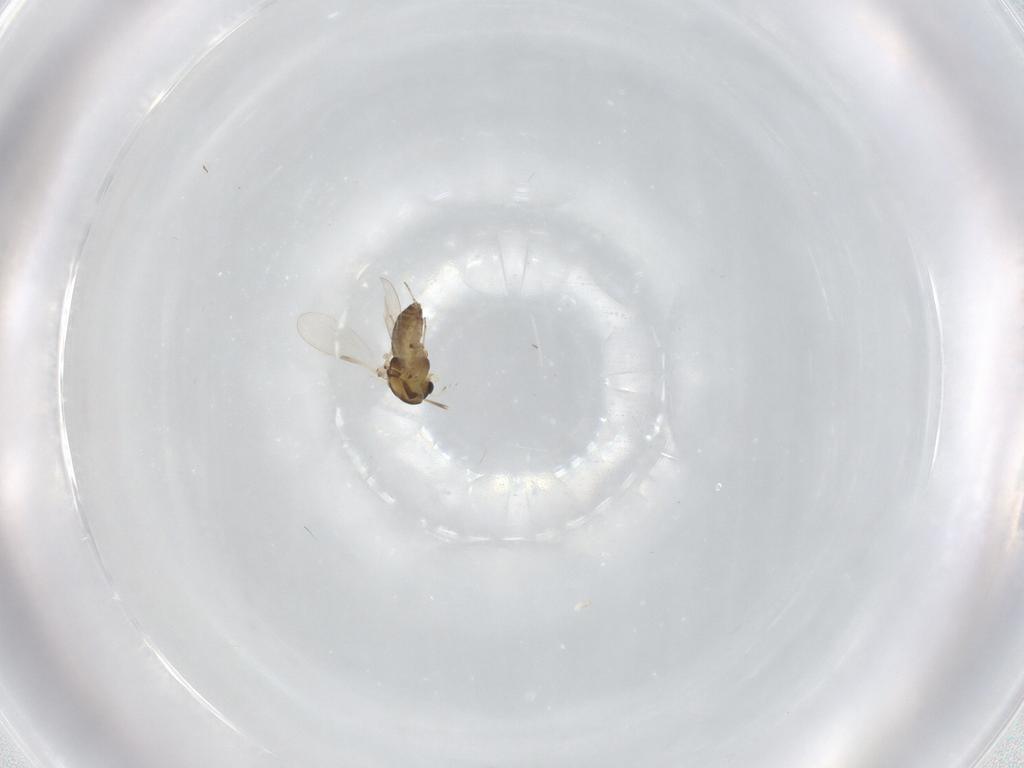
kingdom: Animalia
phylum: Arthropoda
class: Insecta
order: Diptera
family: Chironomidae
